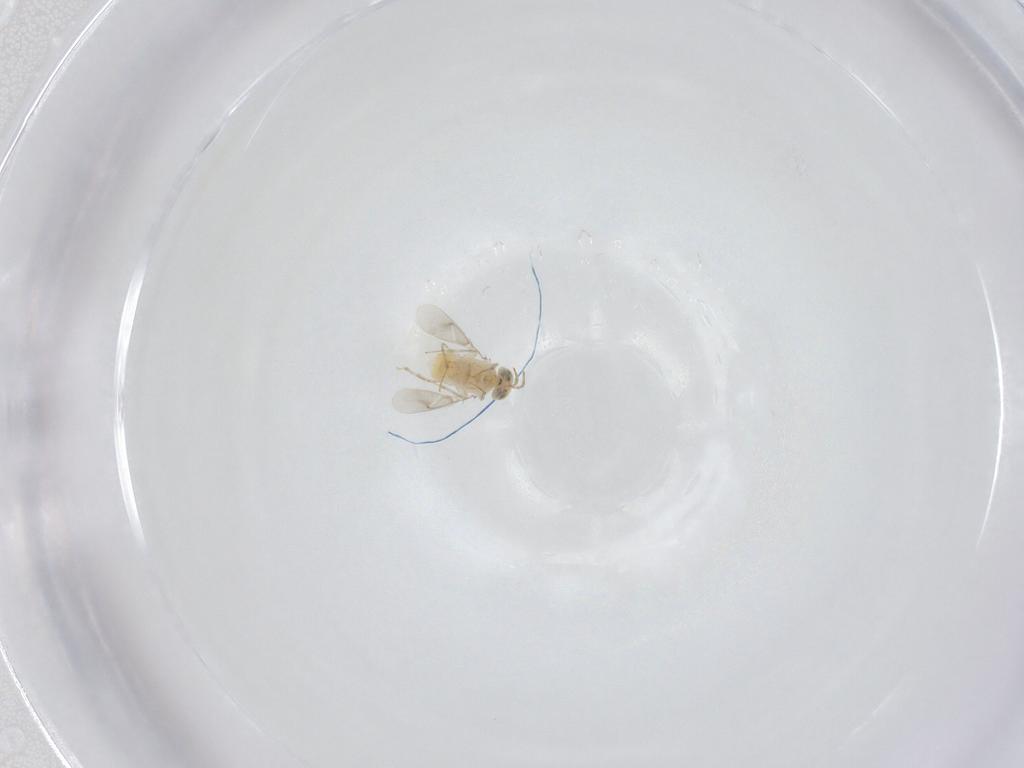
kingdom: Animalia
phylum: Arthropoda
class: Insecta
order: Hymenoptera
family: Aphelinidae
